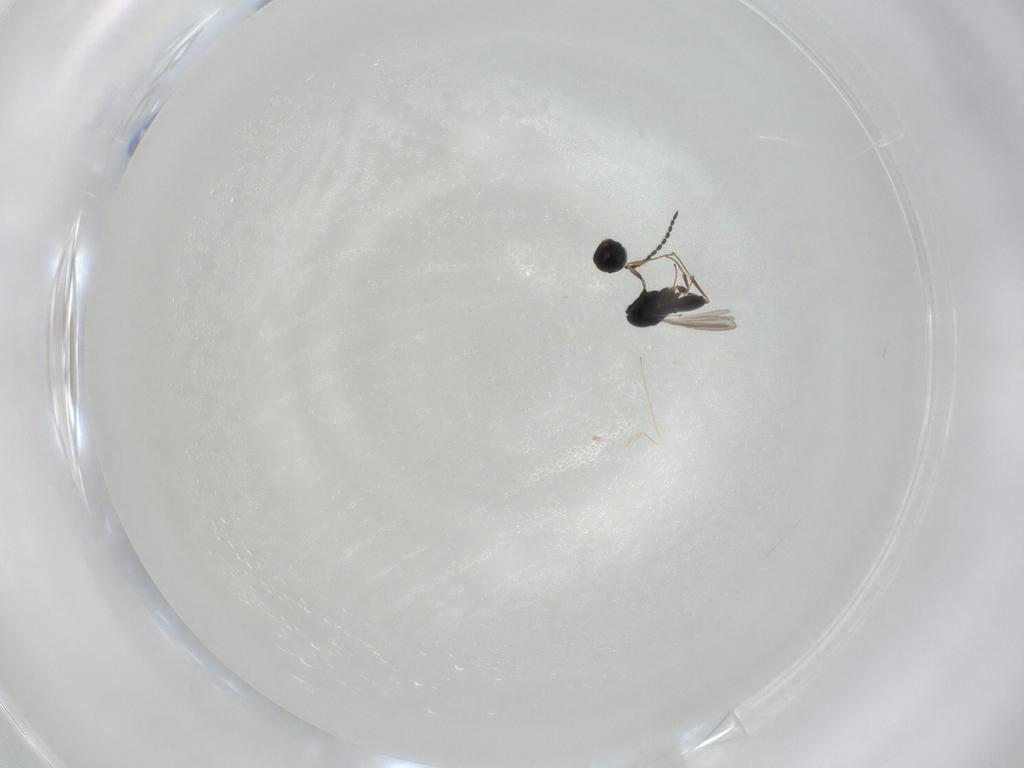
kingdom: Animalia
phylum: Arthropoda
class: Insecta
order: Hymenoptera
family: Scelionidae
